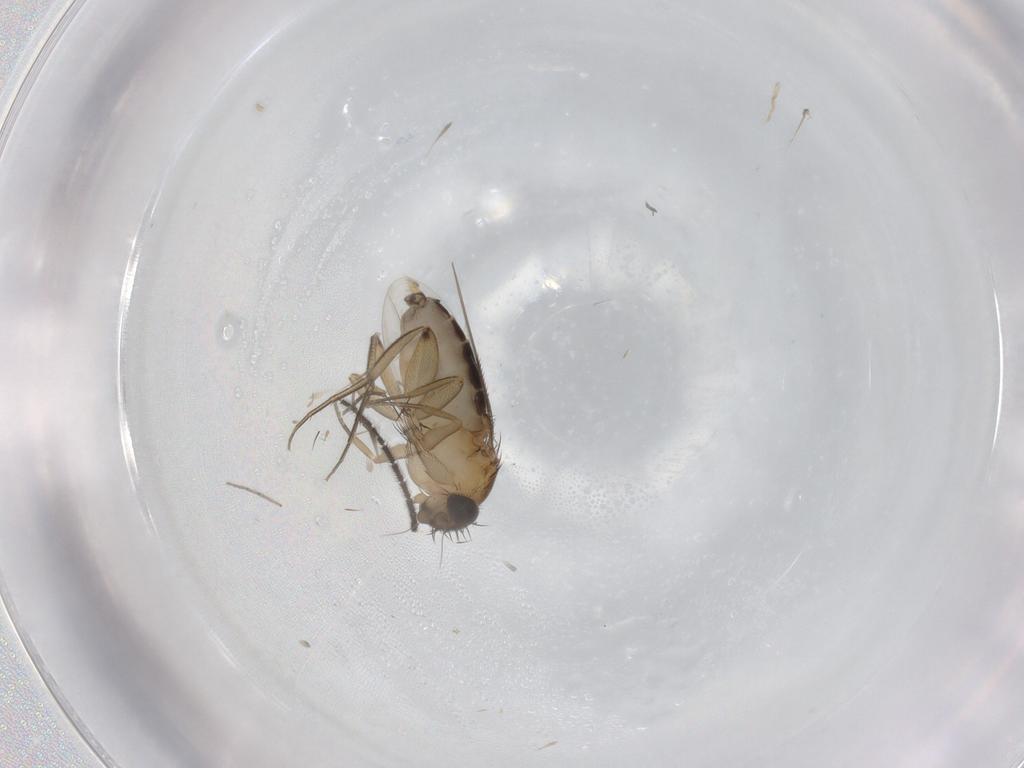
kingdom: Animalia
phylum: Arthropoda
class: Insecta
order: Diptera
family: Phoridae
